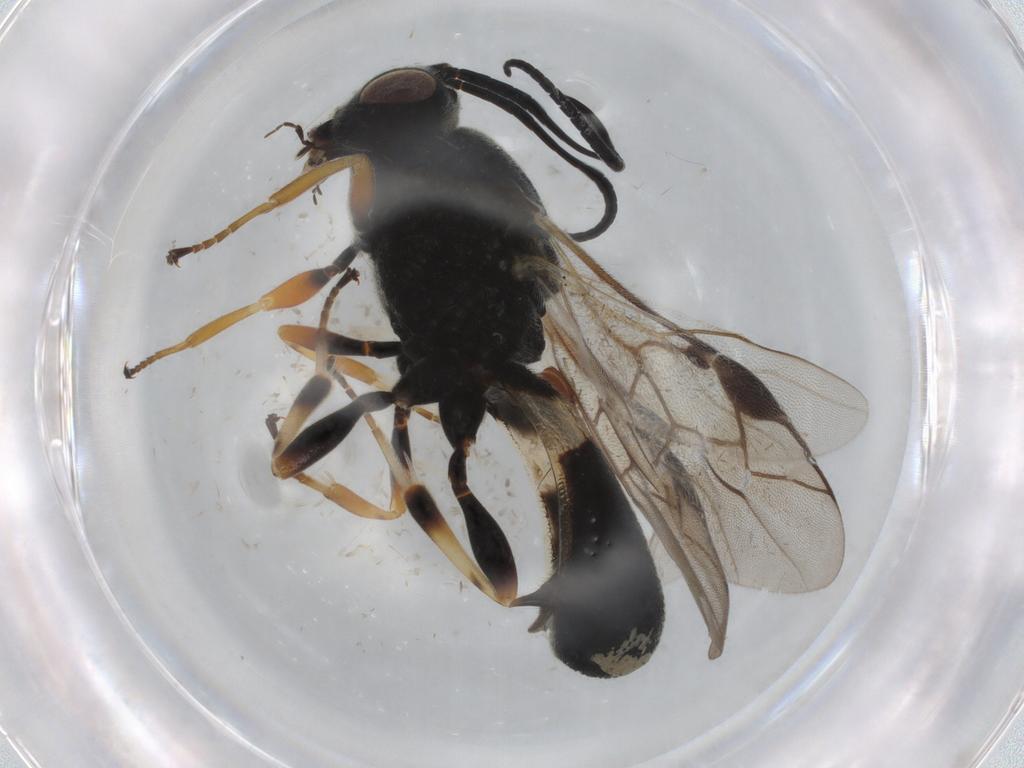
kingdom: Animalia
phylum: Arthropoda
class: Insecta
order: Hymenoptera
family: Braconidae
